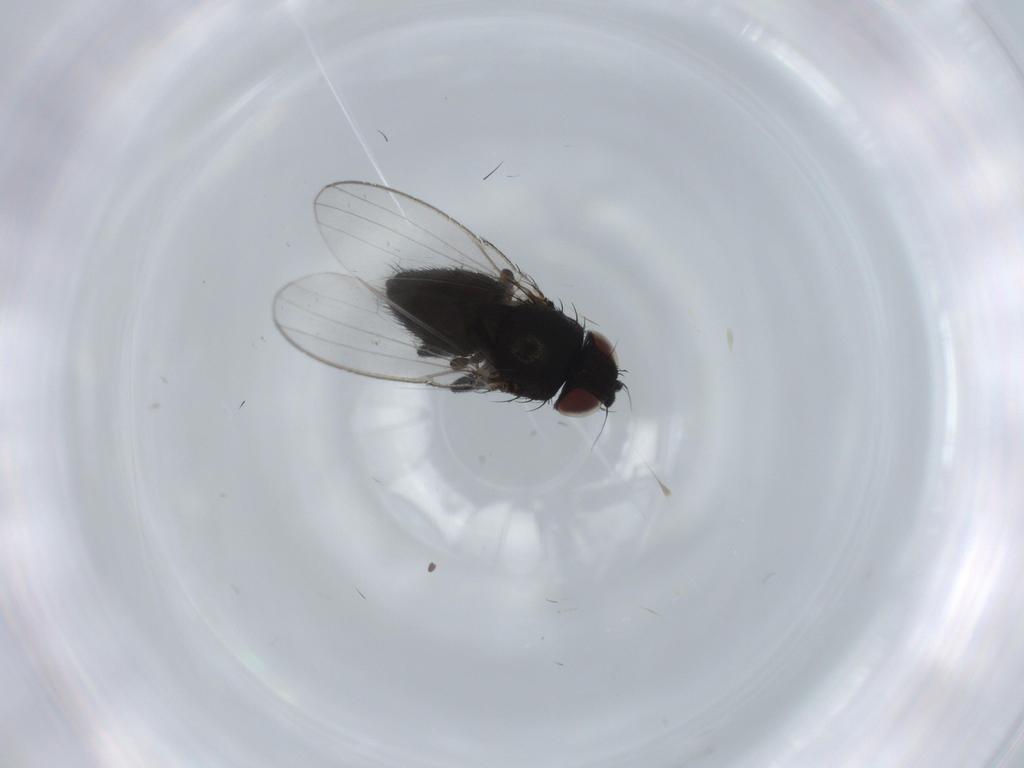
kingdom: Animalia
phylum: Arthropoda
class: Insecta
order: Diptera
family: Milichiidae
